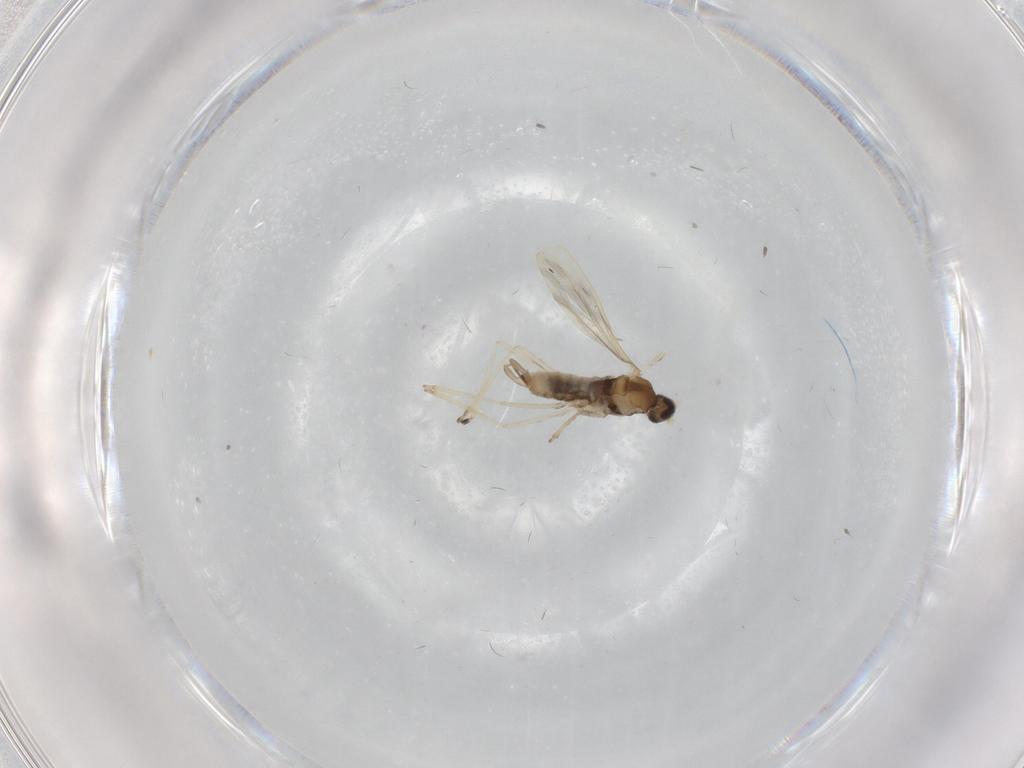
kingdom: Animalia
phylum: Arthropoda
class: Insecta
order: Diptera
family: Cecidomyiidae
